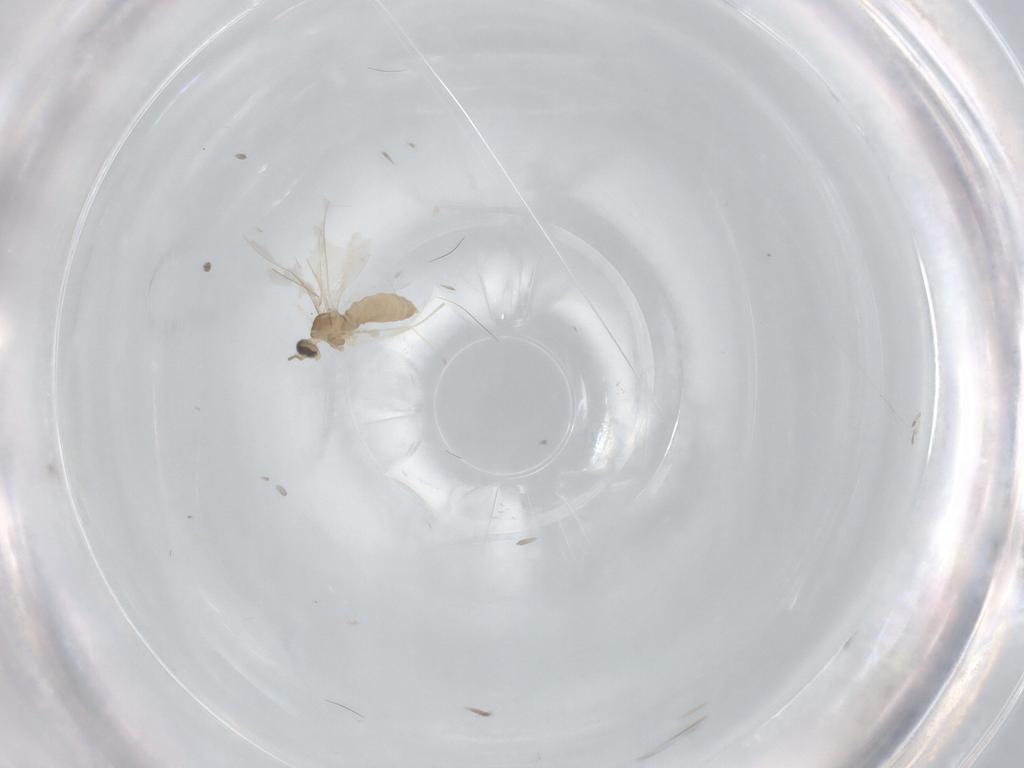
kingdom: Animalia
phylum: Arthropoda
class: Insecta
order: Diptera
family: Cecidomyiidae
